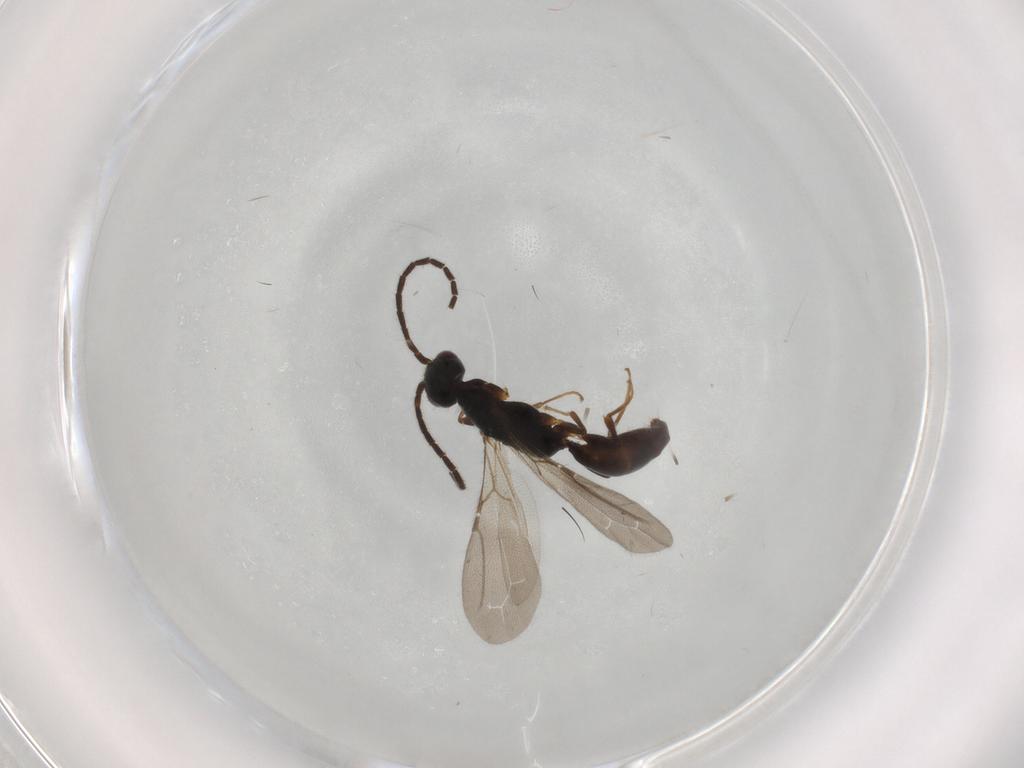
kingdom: Animalia
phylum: Arthropoda
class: Insecta
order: Hymenoptera
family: Bethylidae
